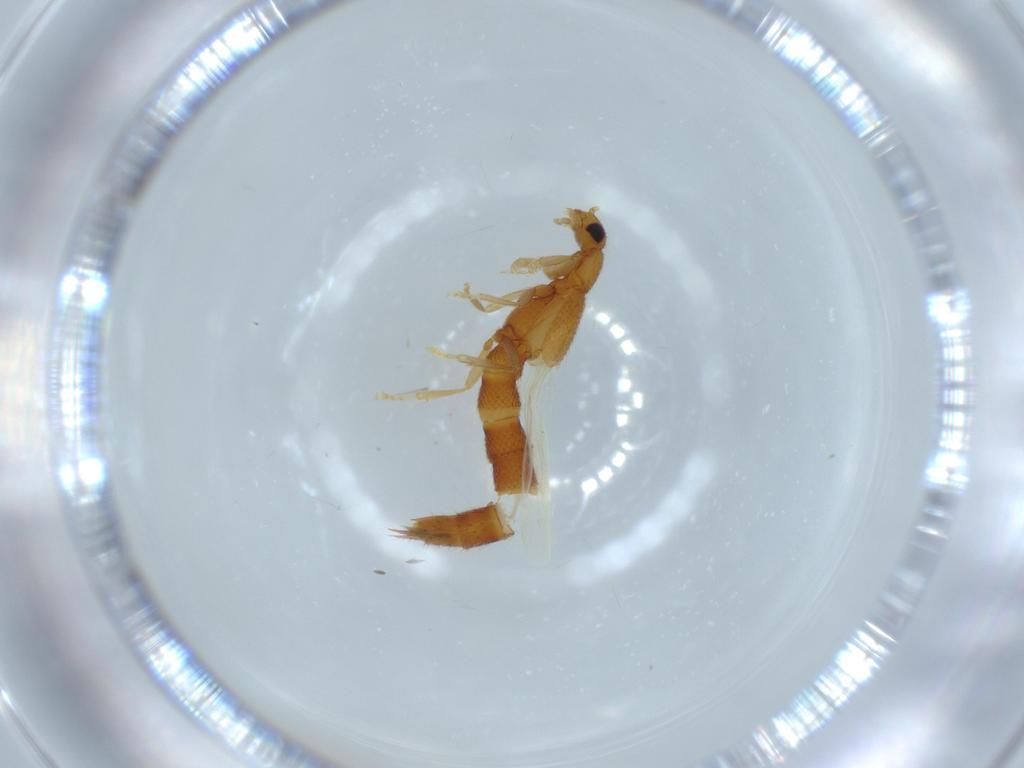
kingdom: Animalia
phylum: Arthropoda
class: Insecta
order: Coleoptera
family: Staphylinidae
